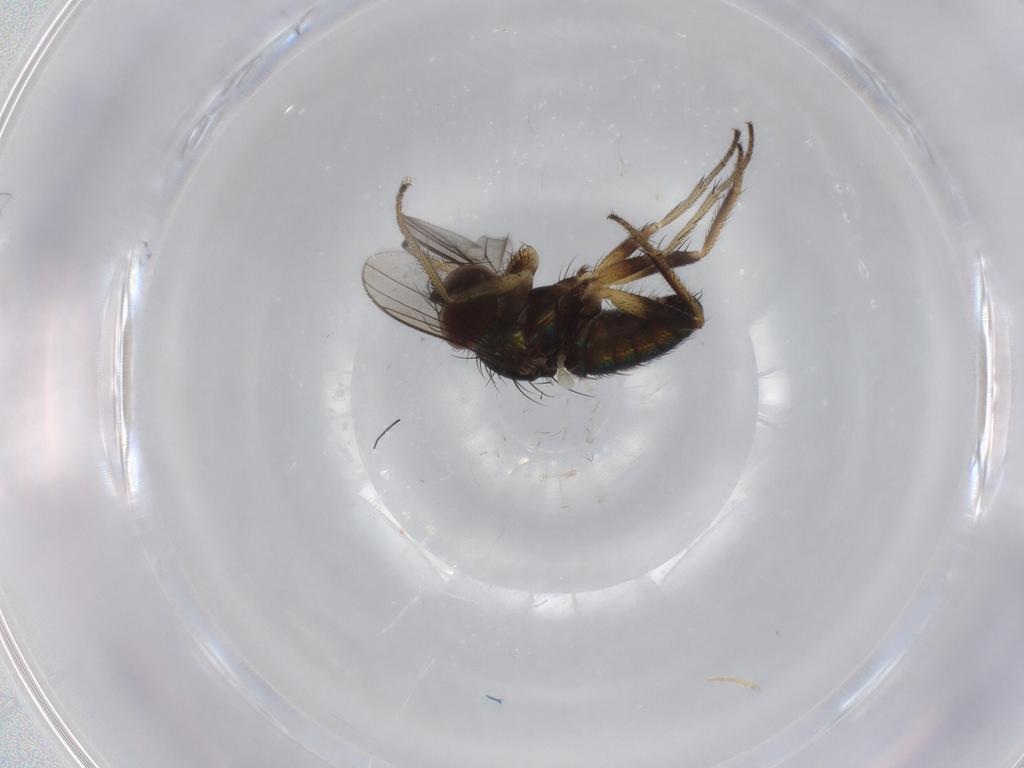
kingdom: Animalia
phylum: Arthropoda
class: Insecta
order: Diptera
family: Dolichopodidae
